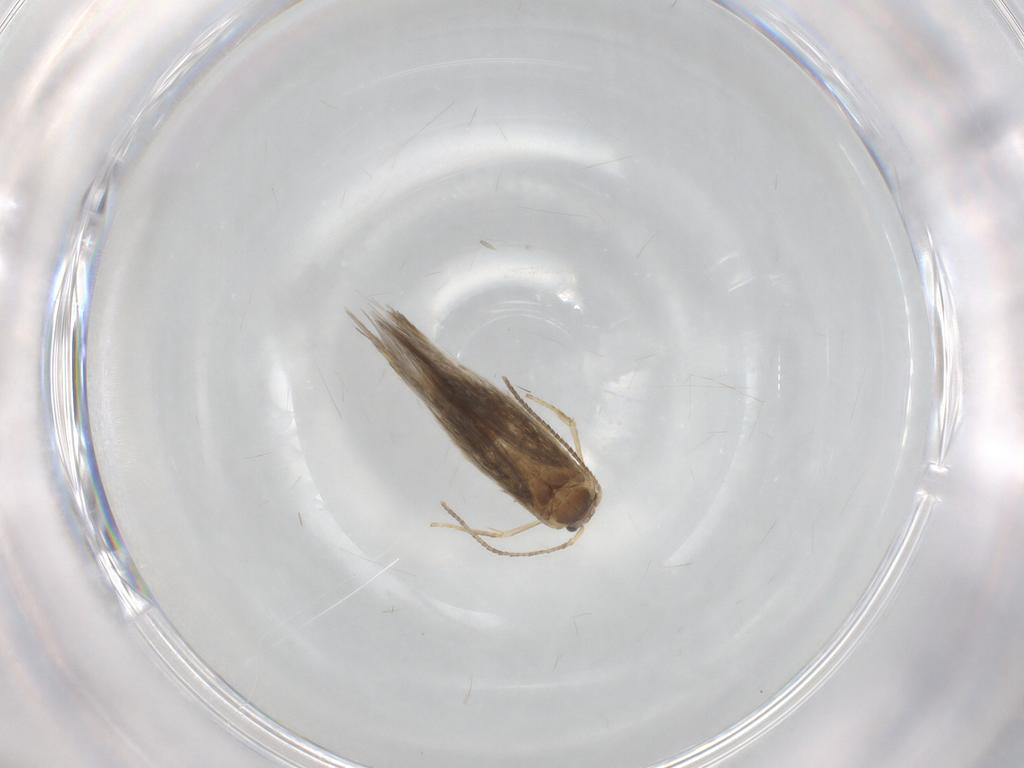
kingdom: Animalia
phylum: Arthropoda
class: Insecta
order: Lepidoptera
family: Nepticulidae
